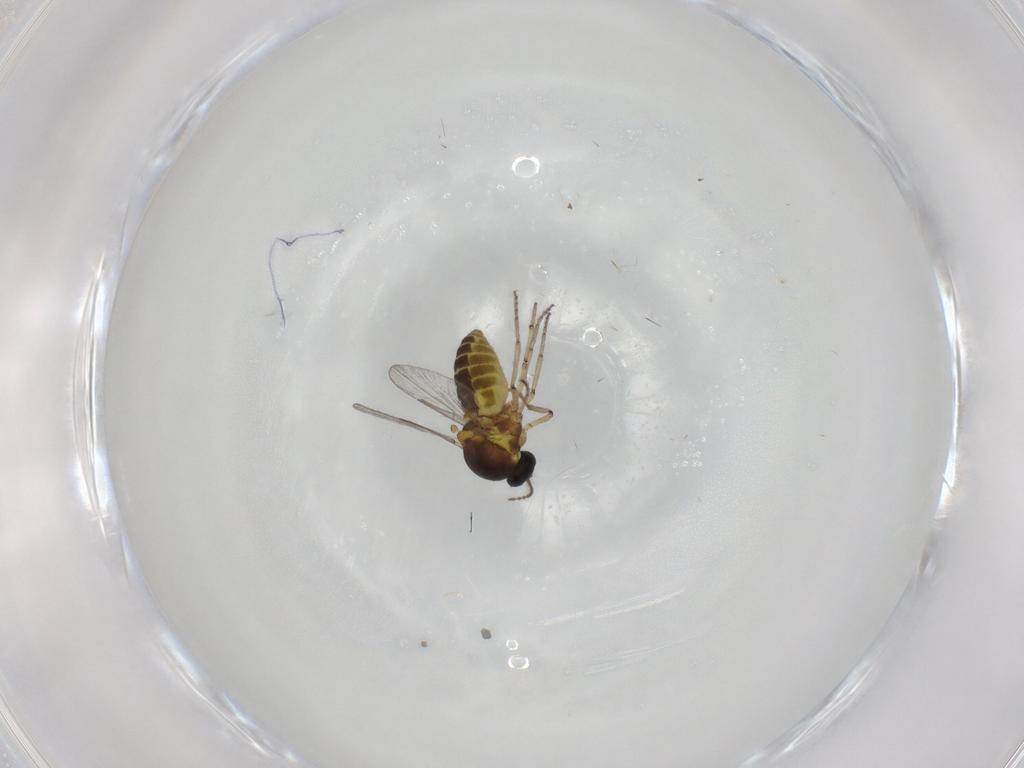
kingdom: Animalia
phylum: Arthropoda
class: Insecta
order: Diptera
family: Ceratopogonidae
